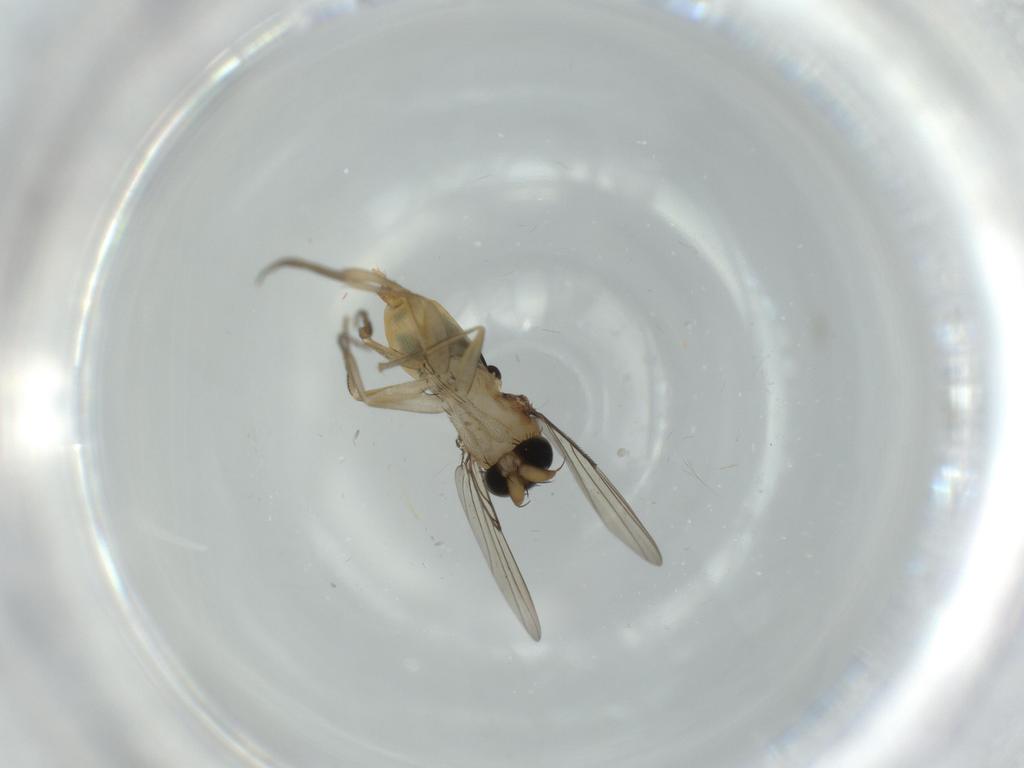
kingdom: Animalia
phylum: Arthropoda
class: Insecta
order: Diptera
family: Phoridae
